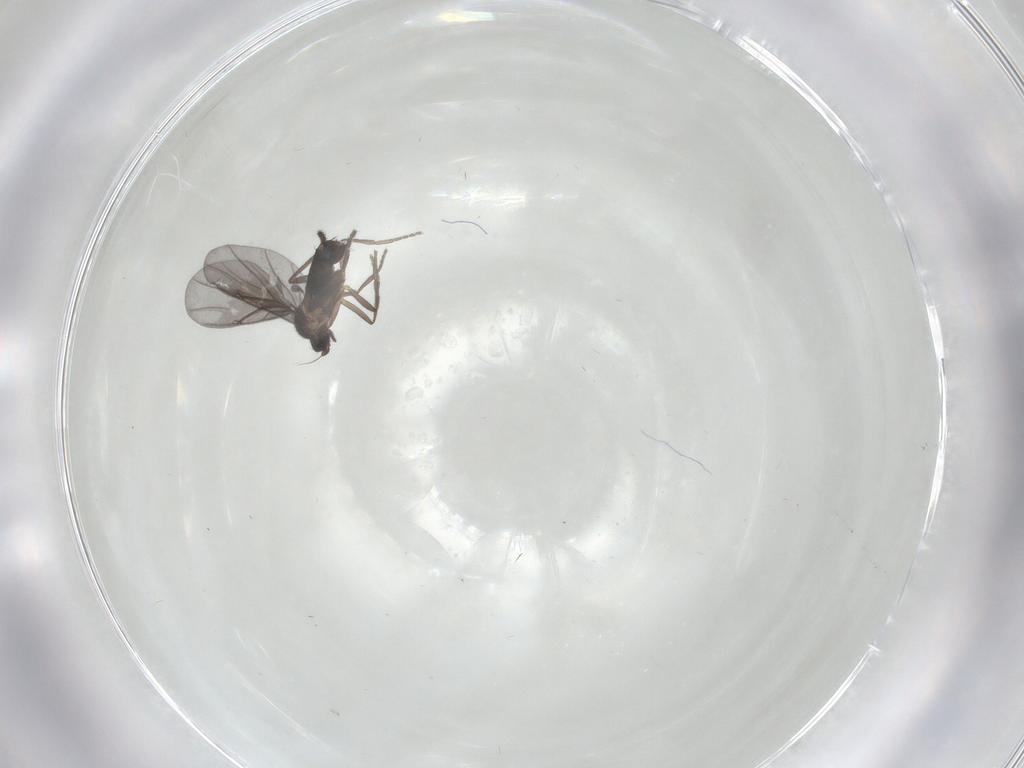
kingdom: Animalia
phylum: Arthropoda
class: Insecta
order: Diptera
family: Phoridae
